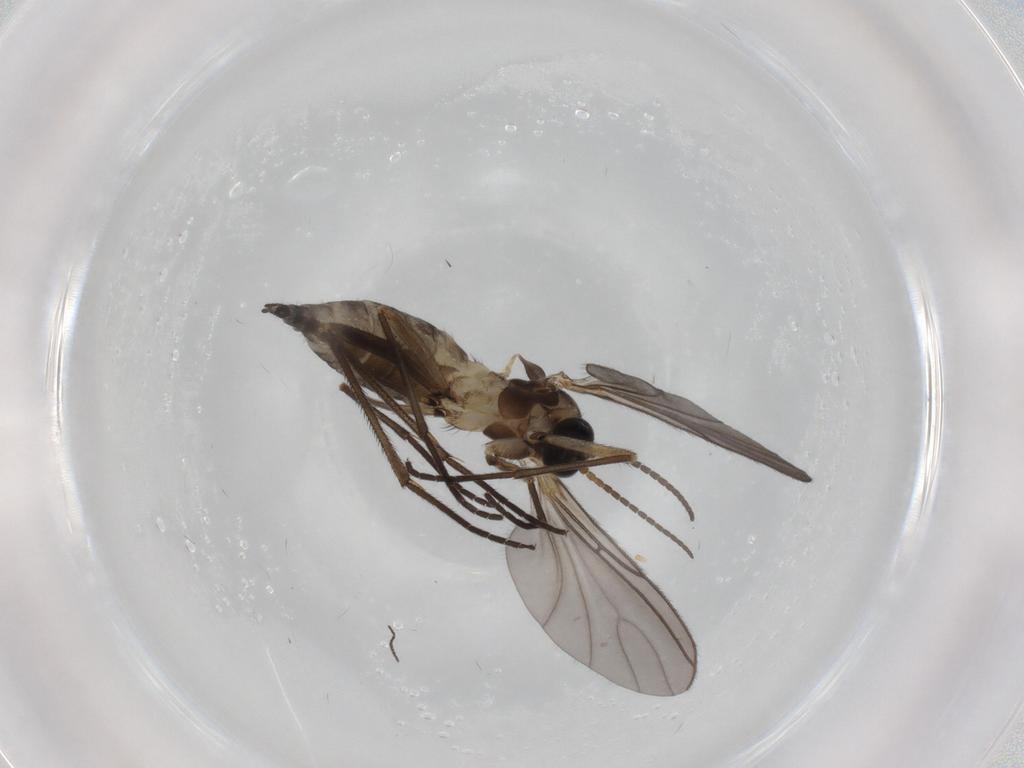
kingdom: Animalia
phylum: Arthropoda
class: Insecta
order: Diptera
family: Sciaridae
